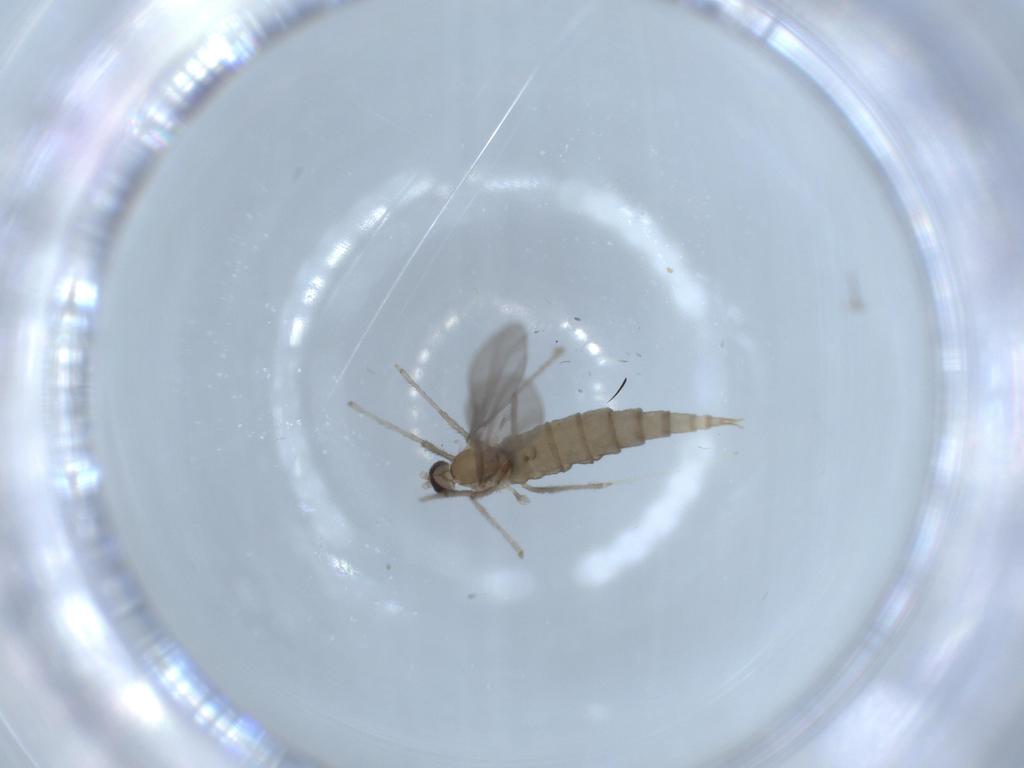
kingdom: Animalia
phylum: Arthropoda
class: Insecta
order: Diptera
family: Cecidomyiidae
